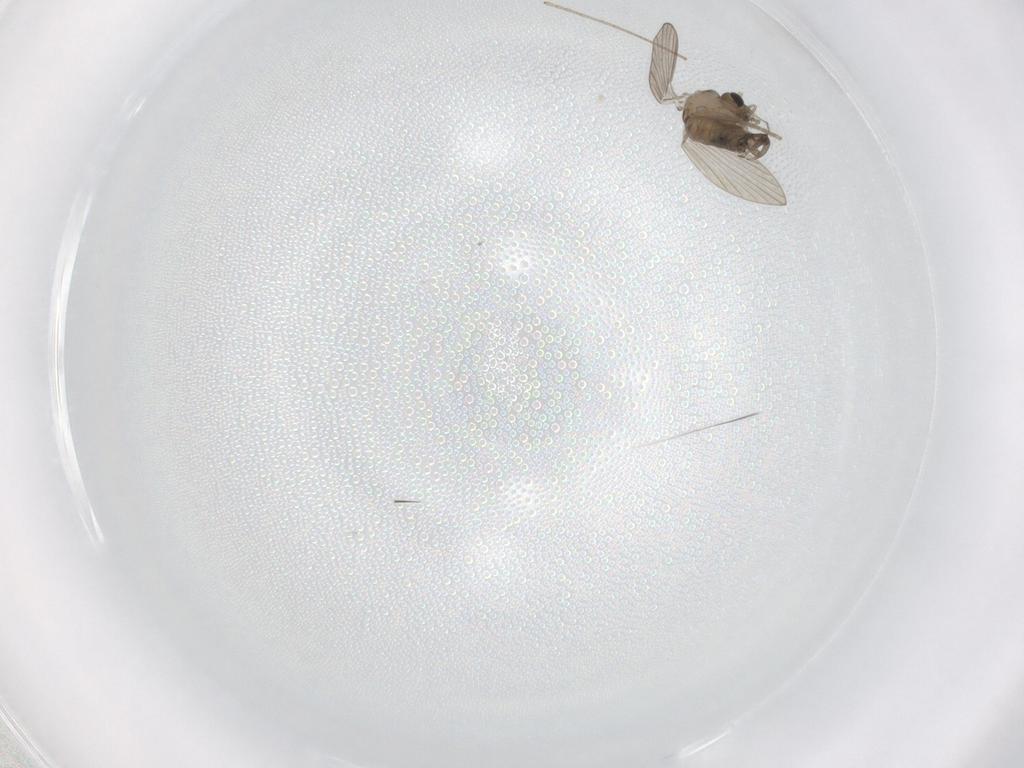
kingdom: Animalia
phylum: Arthropoda
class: Insecta
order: Diptera
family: Psychodidae
